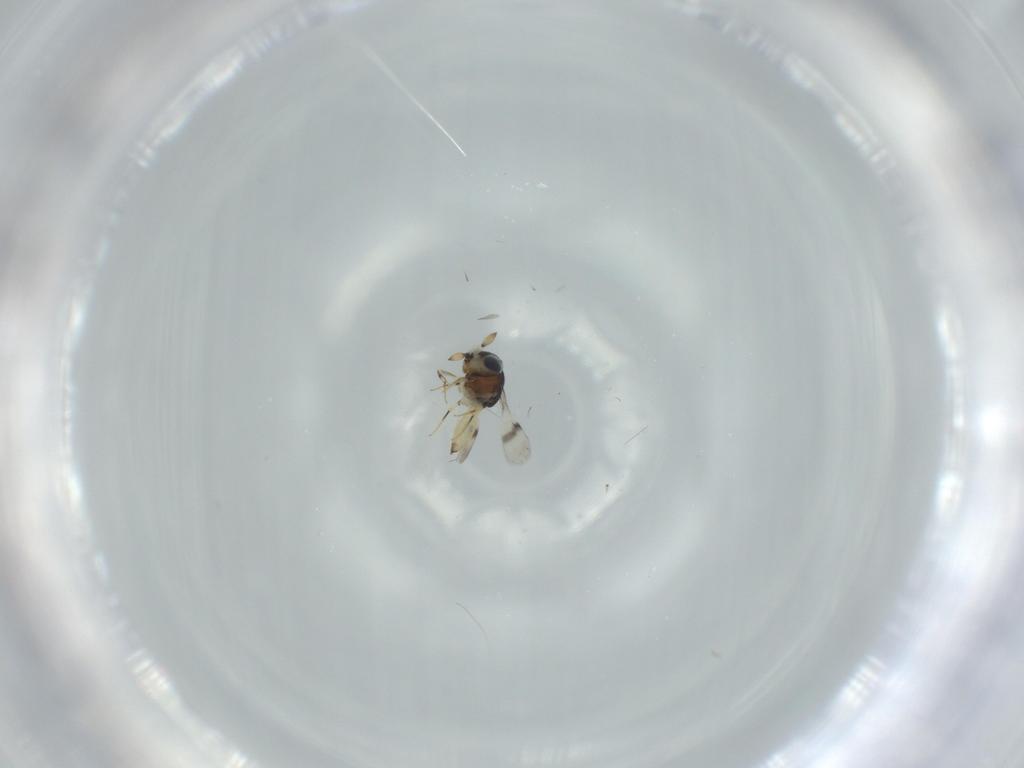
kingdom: Animalia
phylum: Arthropoda
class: Insecta
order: Hymenoptera
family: Scelionidae
